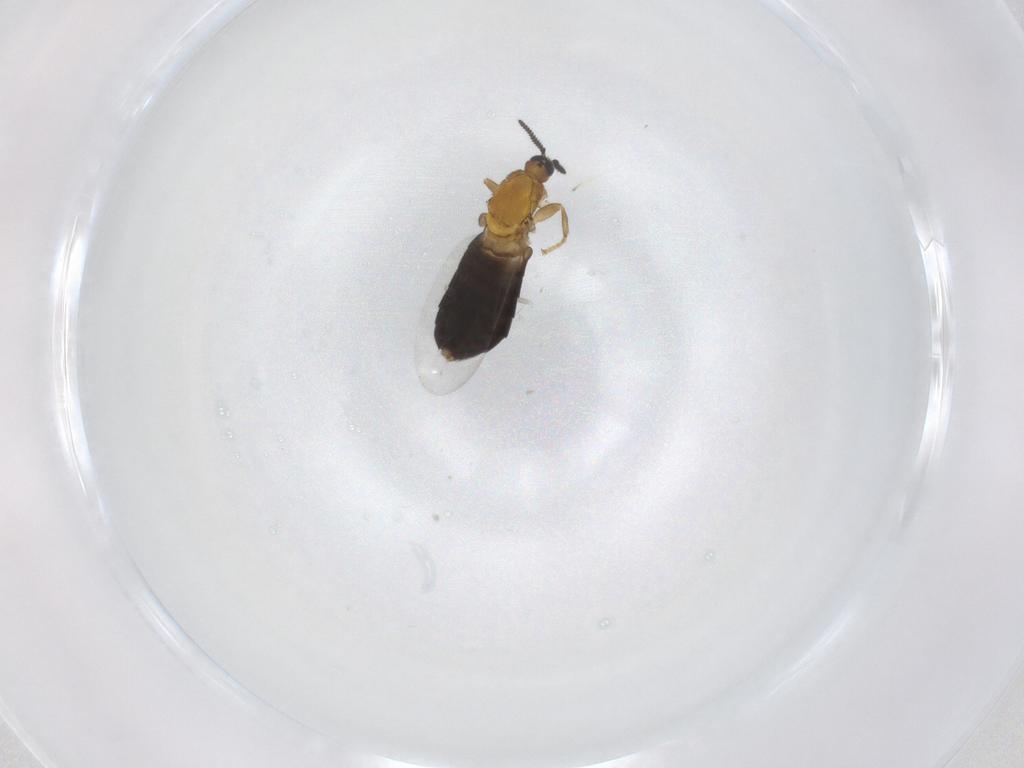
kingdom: Animalia
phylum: Arthropoda
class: Insecta
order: Diptera
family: Scatopsidae
